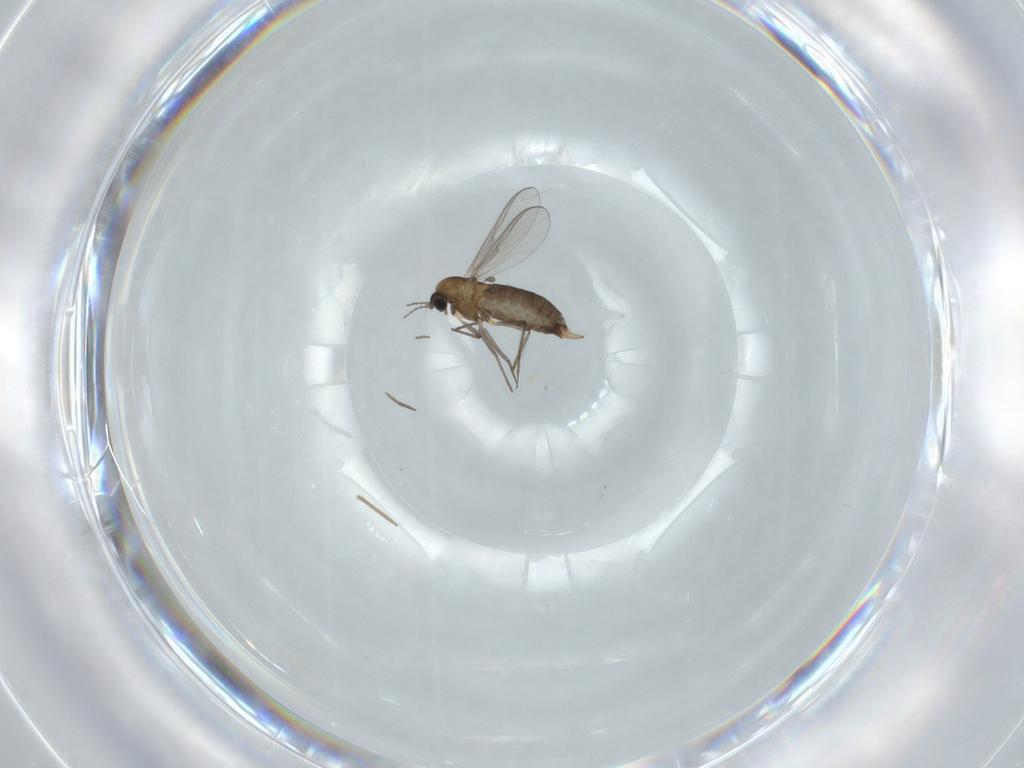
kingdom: Animalia
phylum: Arthropoda
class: Insecta
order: Diptera
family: Chironomidae
